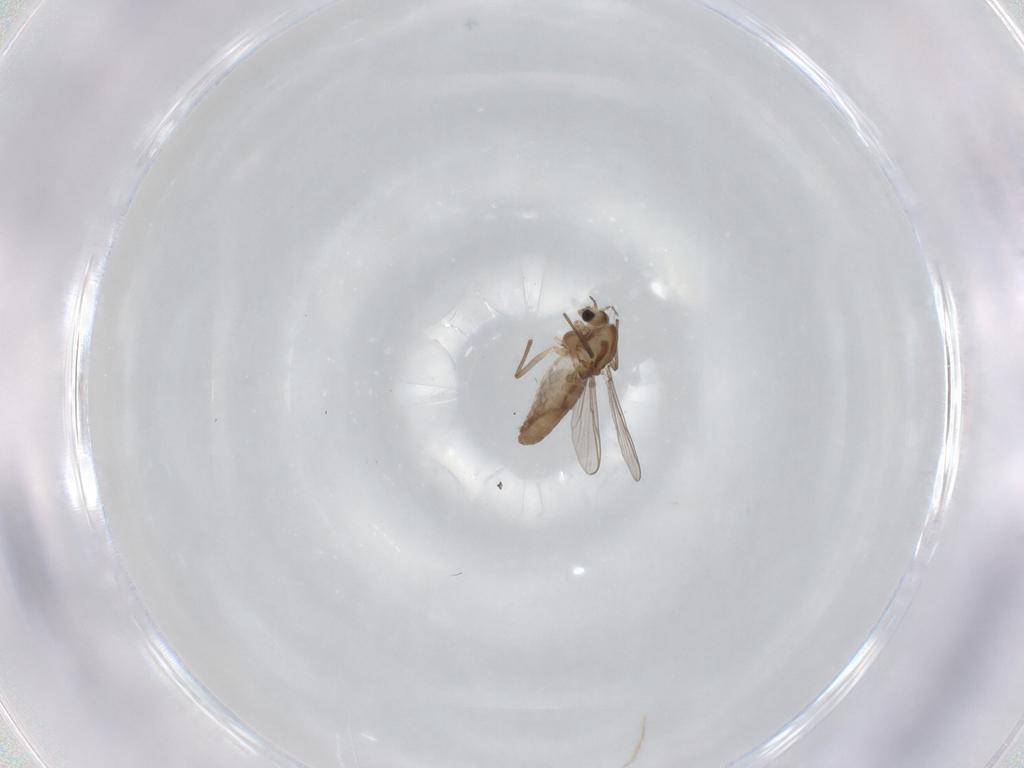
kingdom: Animalia
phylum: Arthropoda
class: Insecta
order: Diptera
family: Chironomidae
